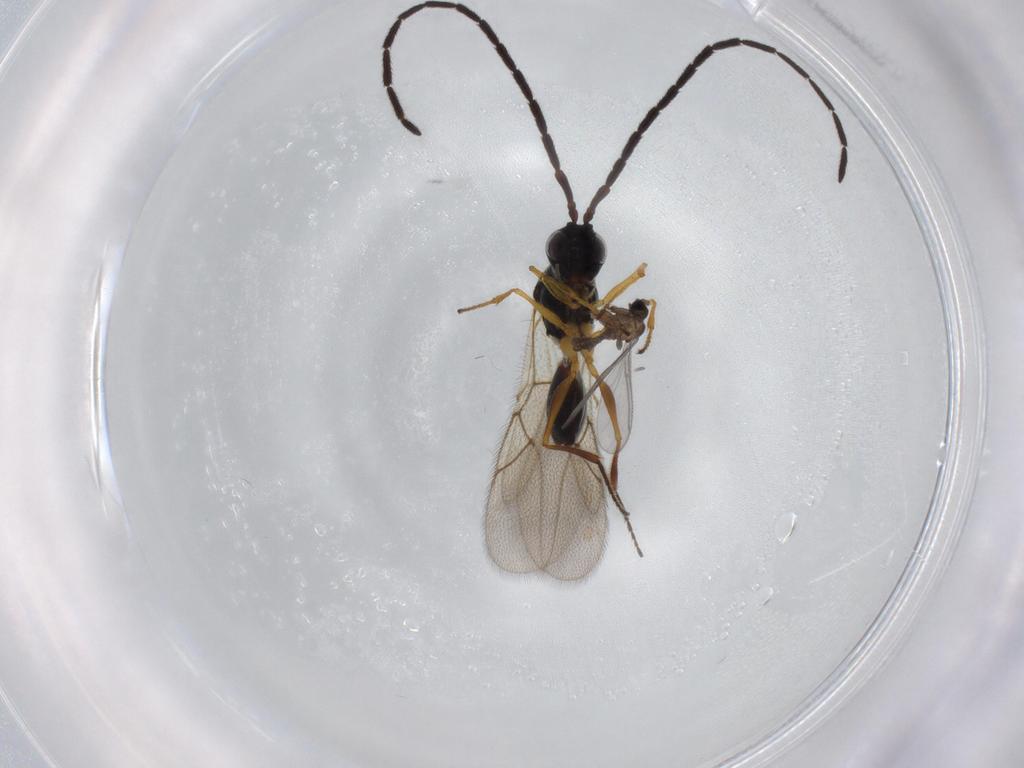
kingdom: Animalia
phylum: Arthropoda
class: Insecta
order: Hymenoptera
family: Figitidae
